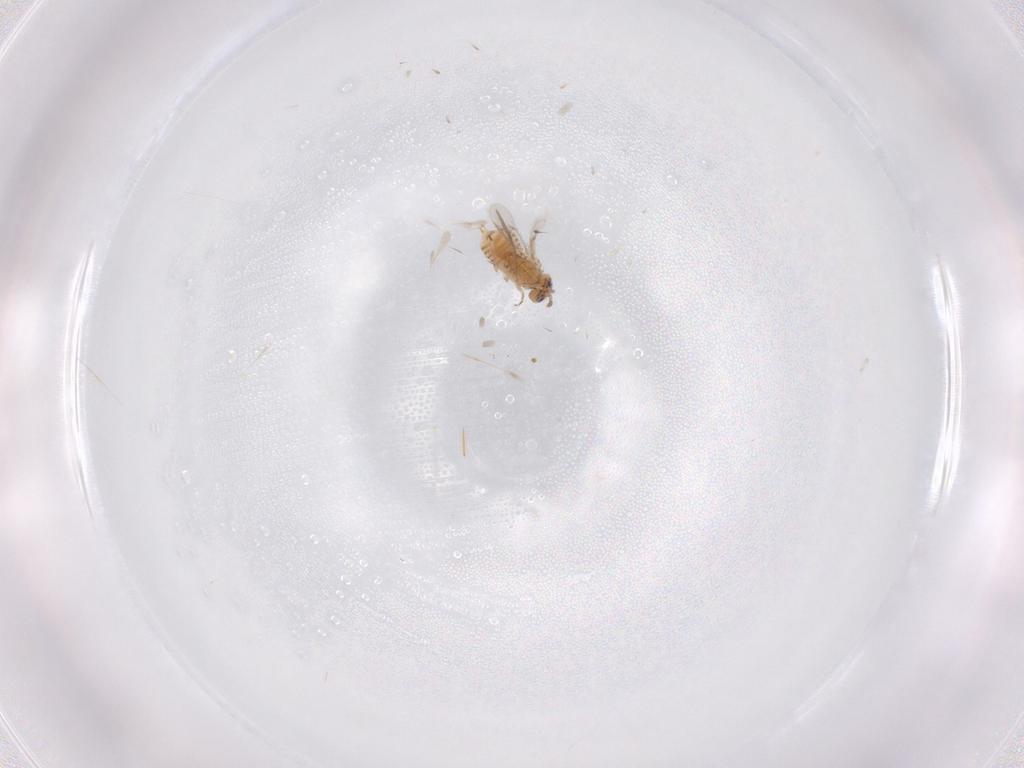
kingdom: Animalia
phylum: Arthropoda
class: Insecta
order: Hymenoptera
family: Aphelinidae
